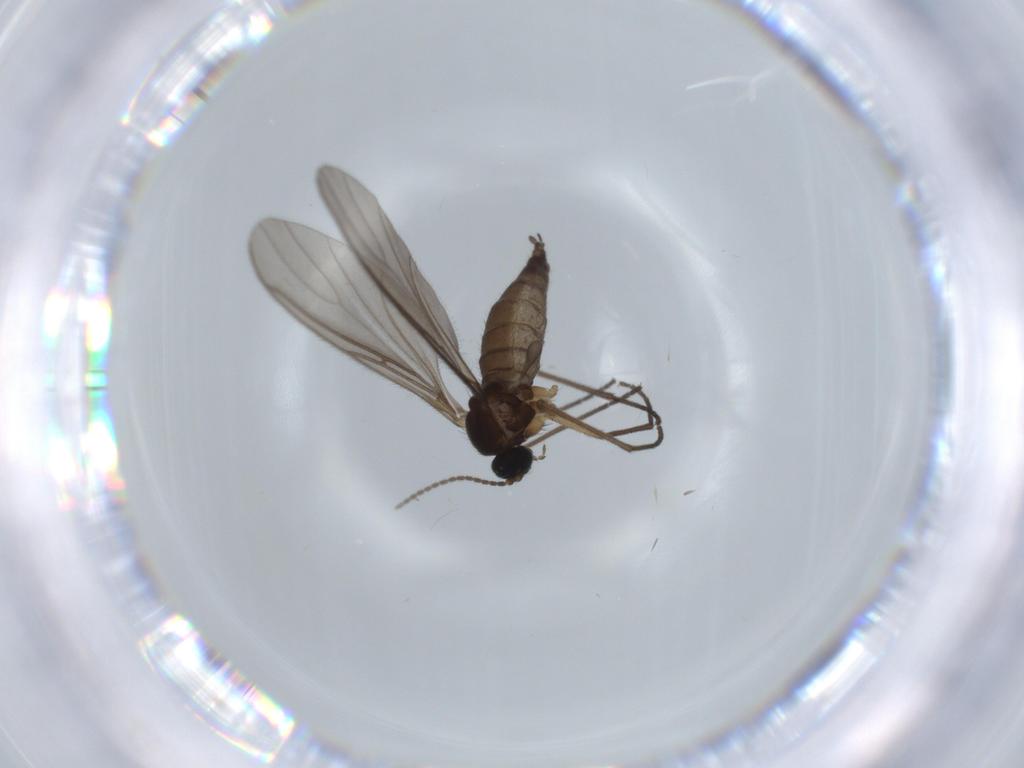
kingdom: Animalia
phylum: Arthropoda
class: Insecta
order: Diptera
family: Sciaridae
